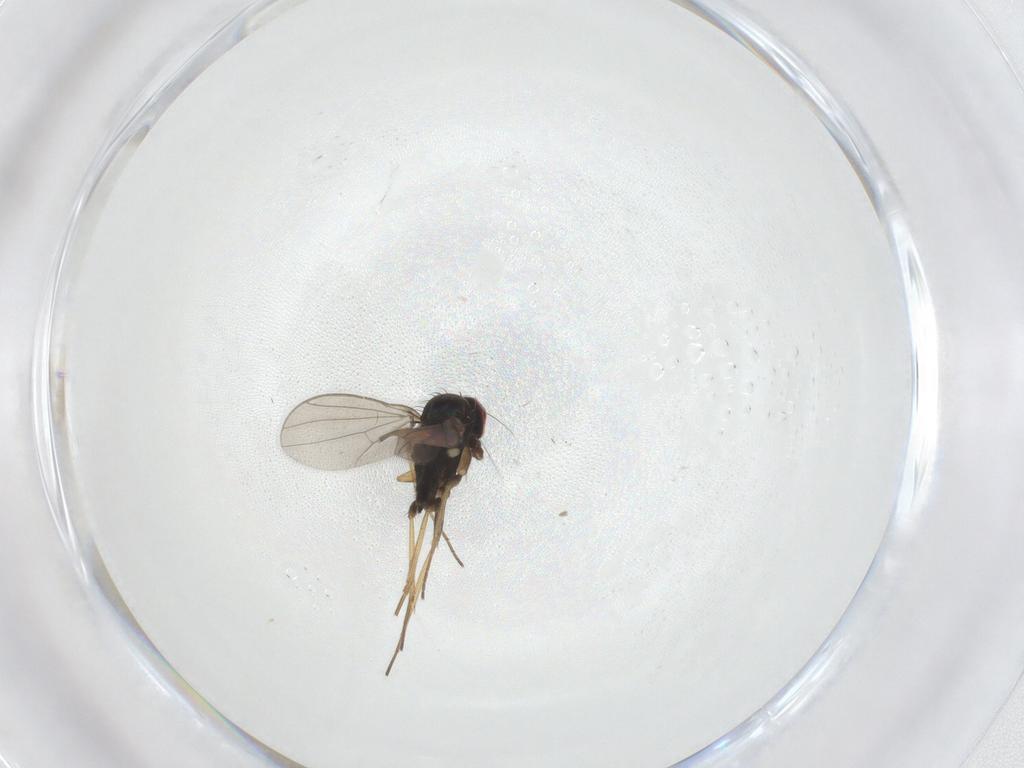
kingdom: Animalia
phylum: Arthropoda
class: Insecta
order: Diptera
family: Dolichopodidae
